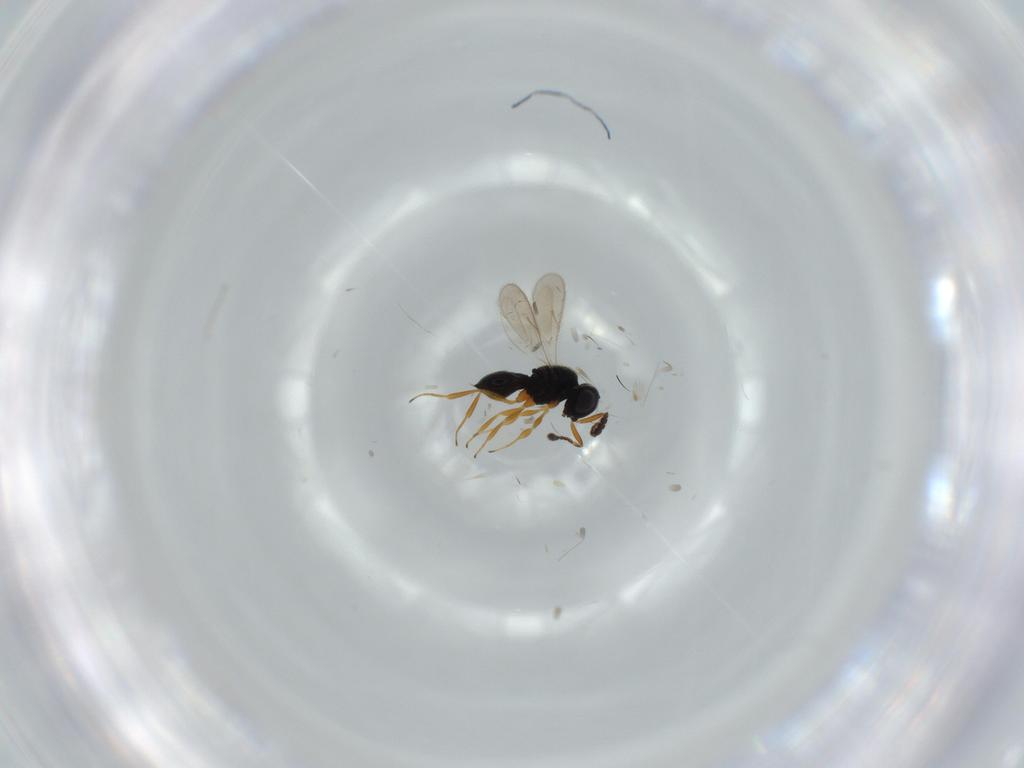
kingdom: Animalia
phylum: Arthropoda
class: Insecta
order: Hymenoptera
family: Scelionidae
